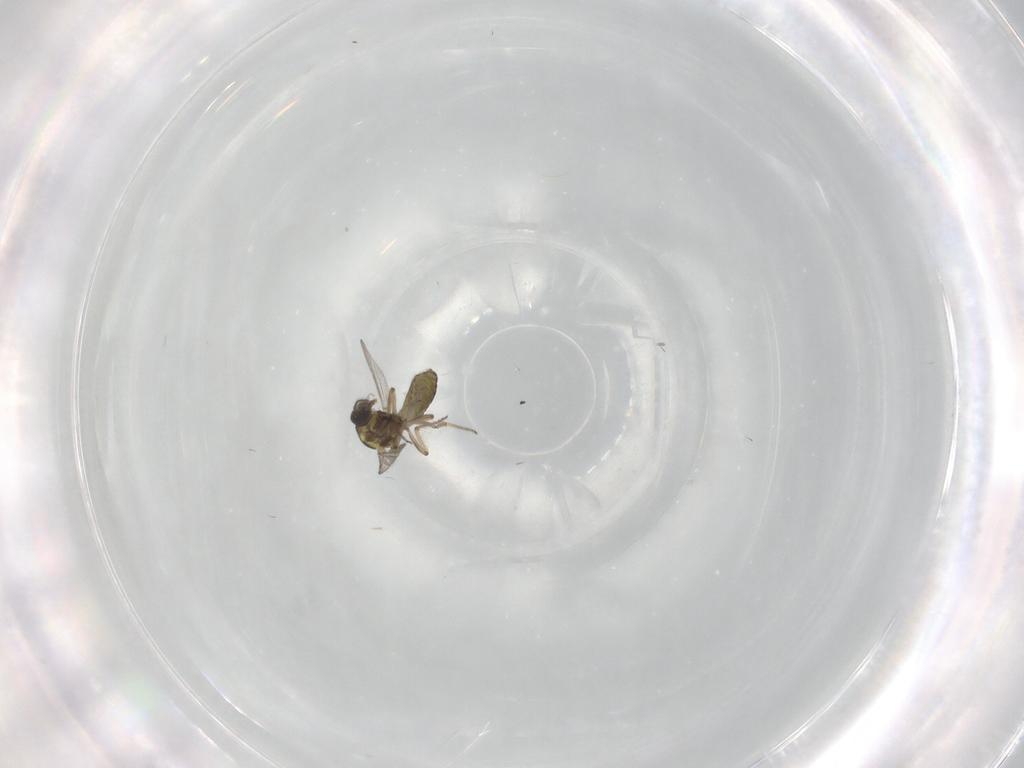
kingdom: Animalia
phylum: Arthropoda
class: Insecta
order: Diptera
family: Ceratopogonidae
